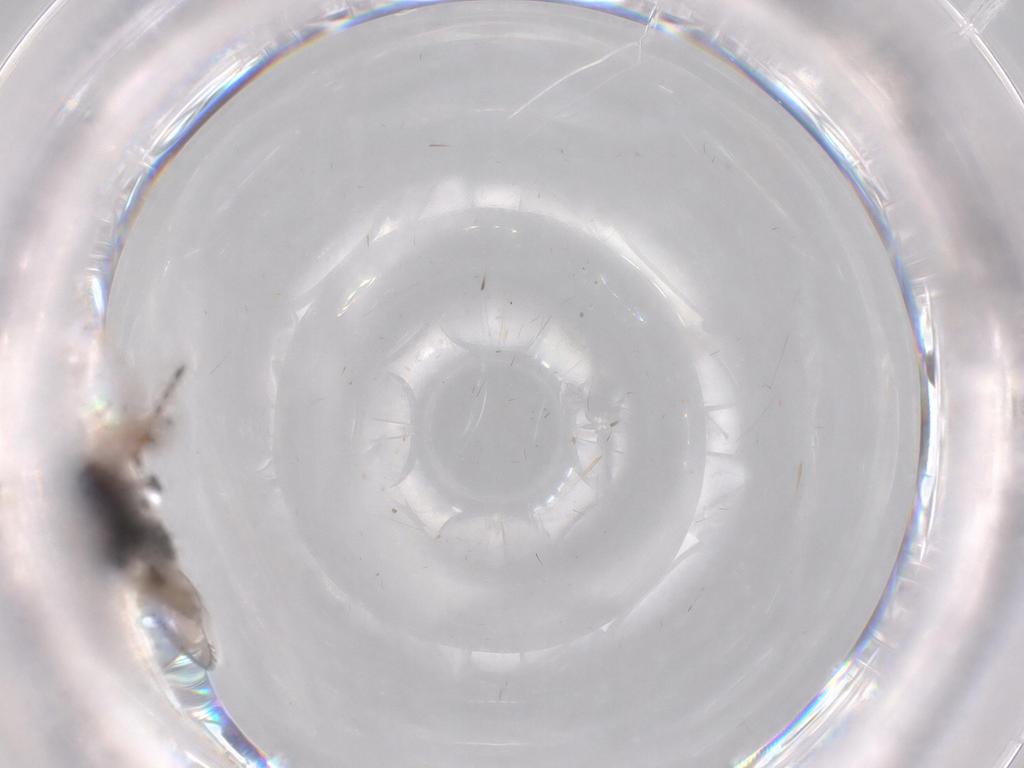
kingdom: Animalia
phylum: Arthropoda
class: Insecta
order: Hymenoptera
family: Diapriidae
